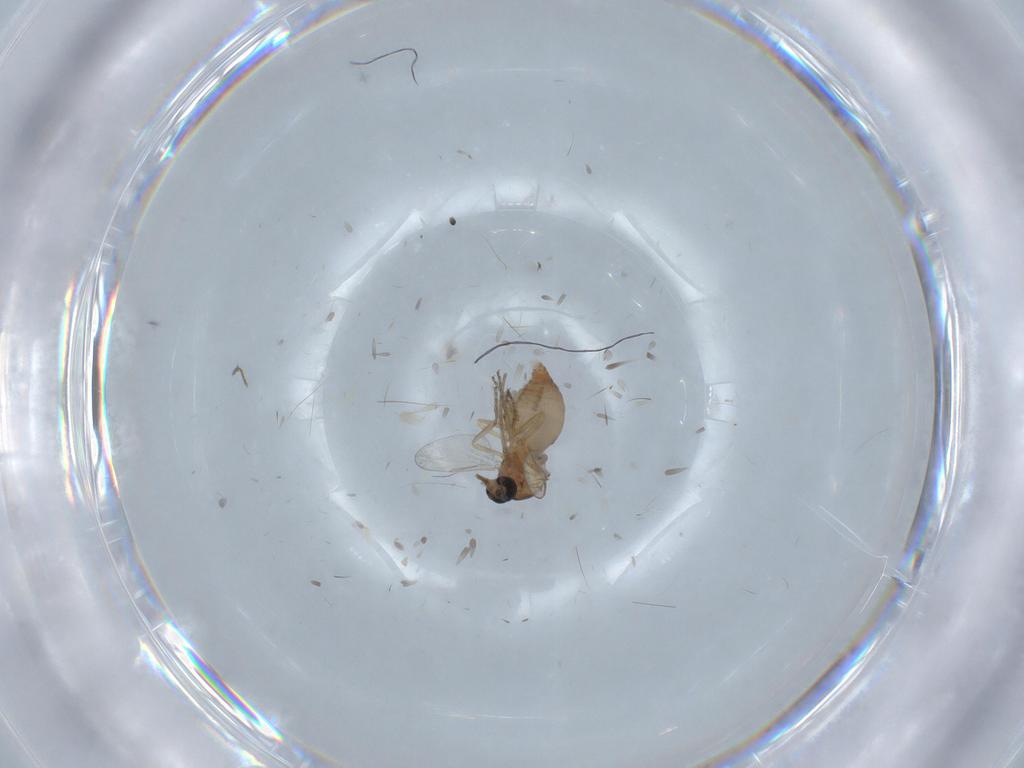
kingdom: Animalia
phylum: Arthropoda
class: Insecta
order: Diptera
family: Ceratopogonidae
